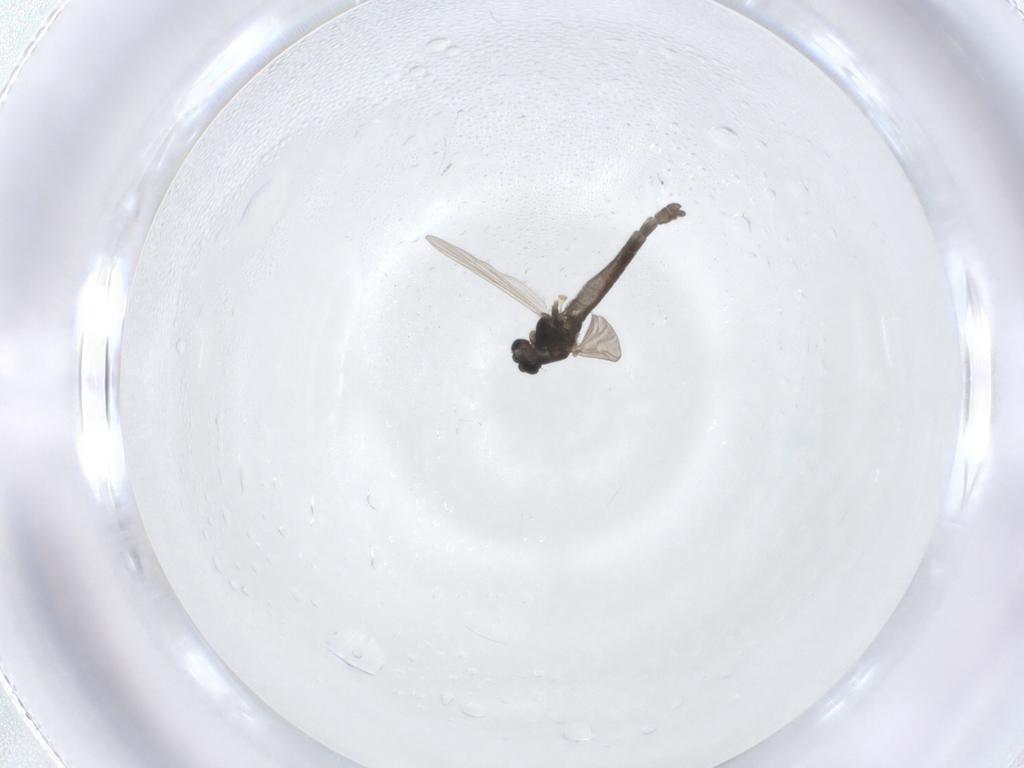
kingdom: Animalia
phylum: Arthropoda
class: Insecta
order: Diptera
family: Chironomidae
